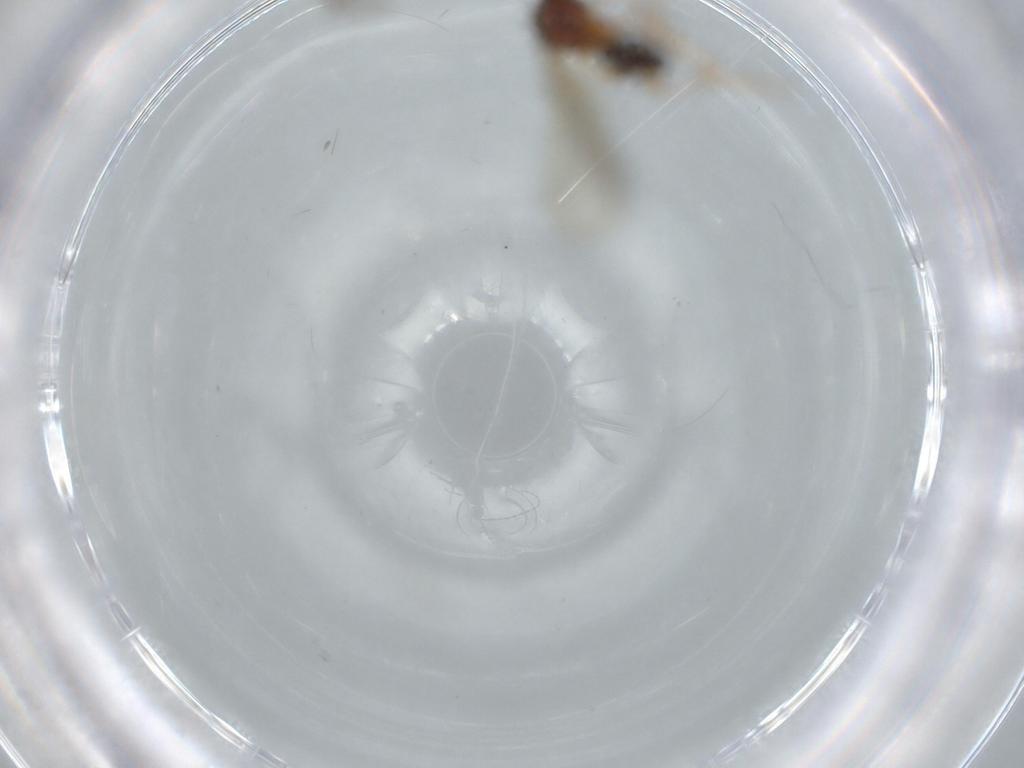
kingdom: Animalia
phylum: Arthropoda
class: Insecta
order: Hymenoptera
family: Diapriidae
